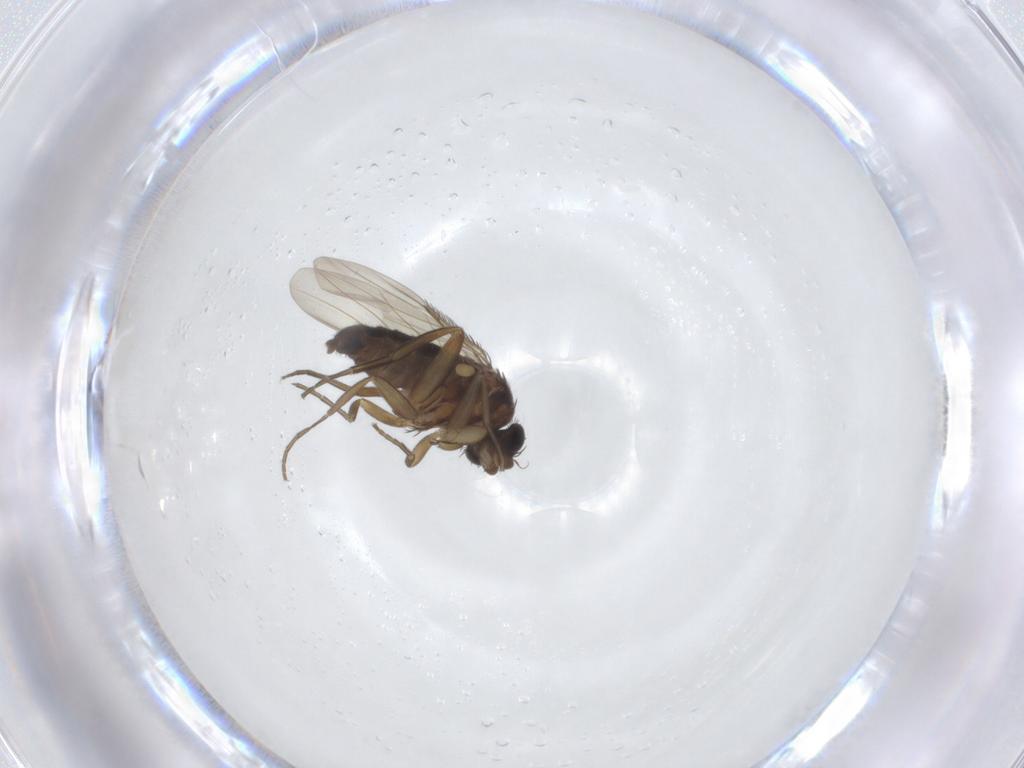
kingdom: Animalia
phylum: Arthropoda
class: Insecta
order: Diptera
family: Phoridae
